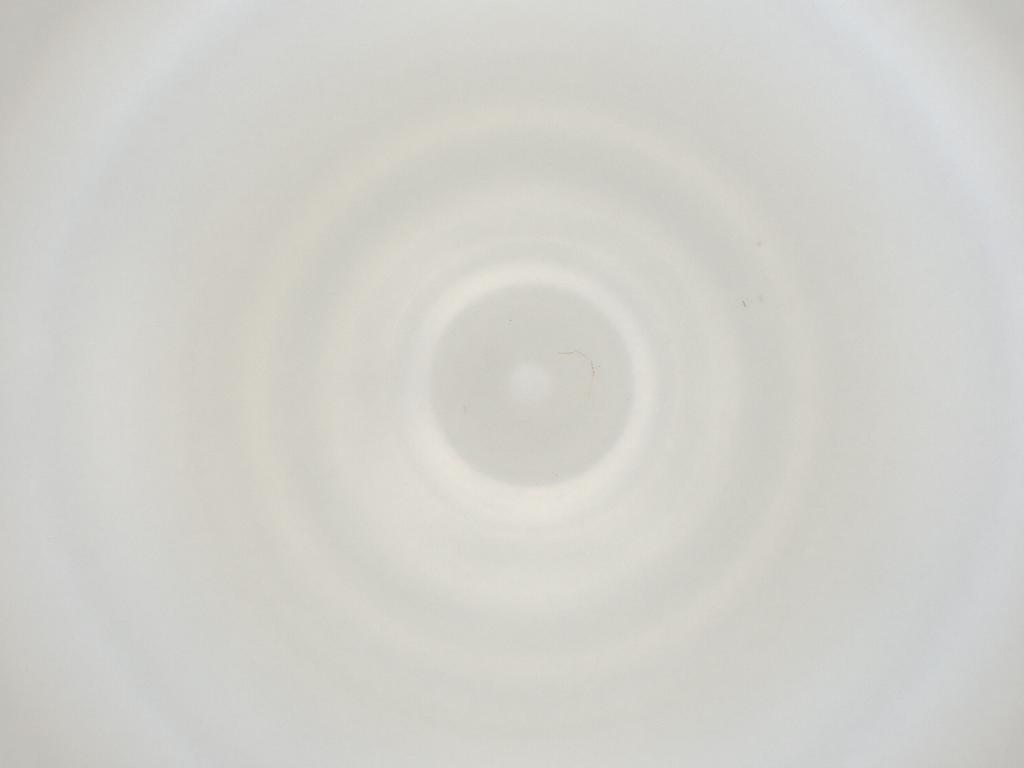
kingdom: Animalia
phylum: Arthropoda
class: Insecta
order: Diptera
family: Cecidomyiidae
